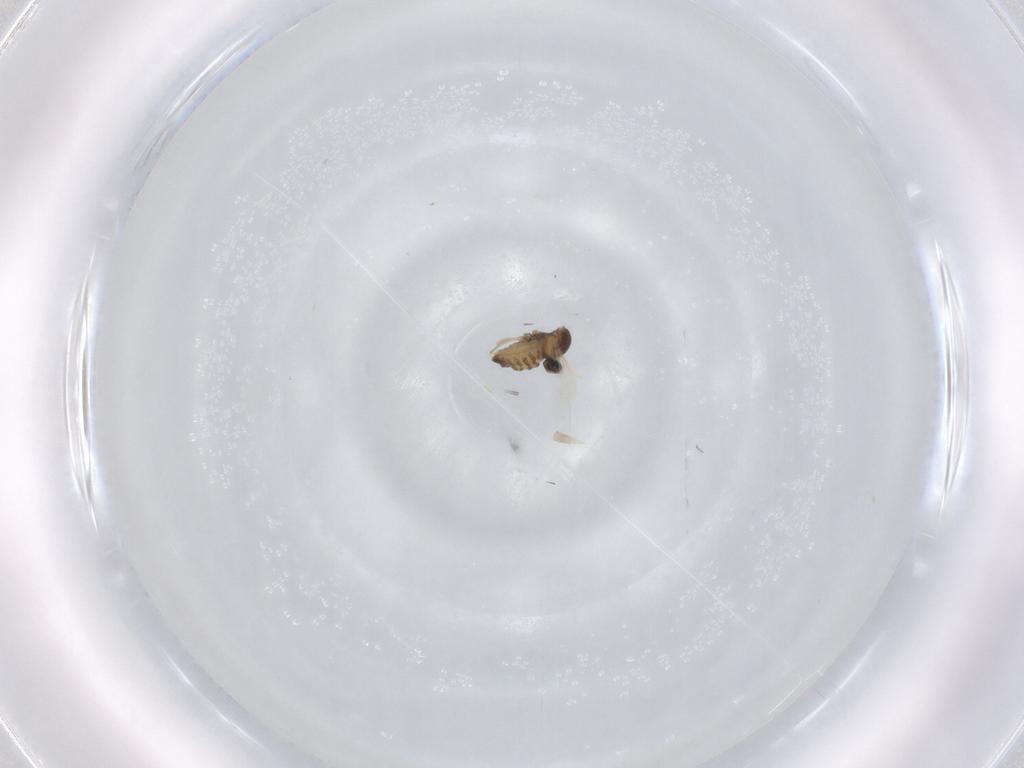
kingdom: Animalia
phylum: Arthropoda
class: Insecta
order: Diptera
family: Cecidomyiidae
